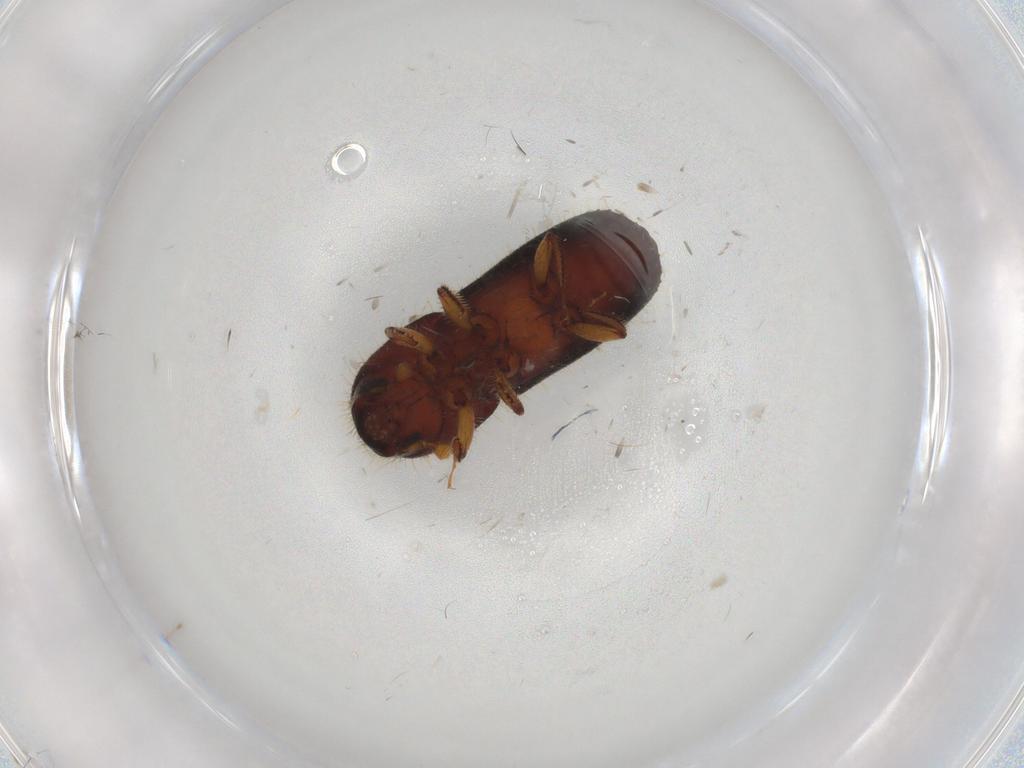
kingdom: Animalia
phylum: Arthropoda
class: Insecta
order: Coleoptera
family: Curculionidae
